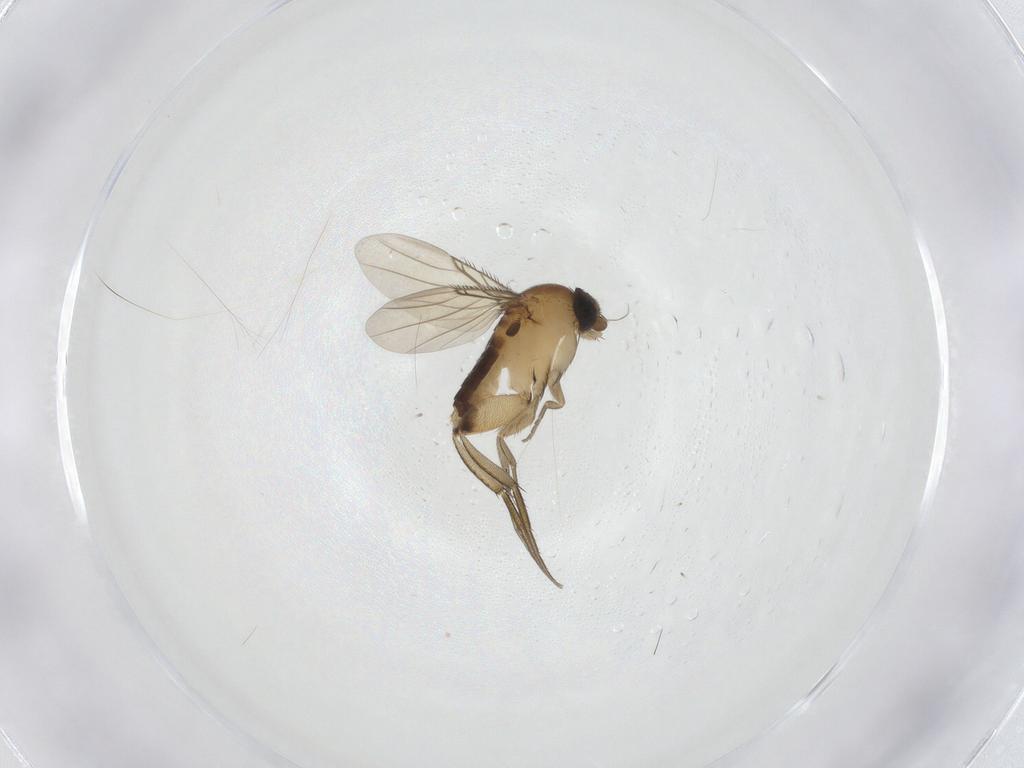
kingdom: Animalia
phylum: Arthropoda
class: Insecta
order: Diptera
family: Phoridae
